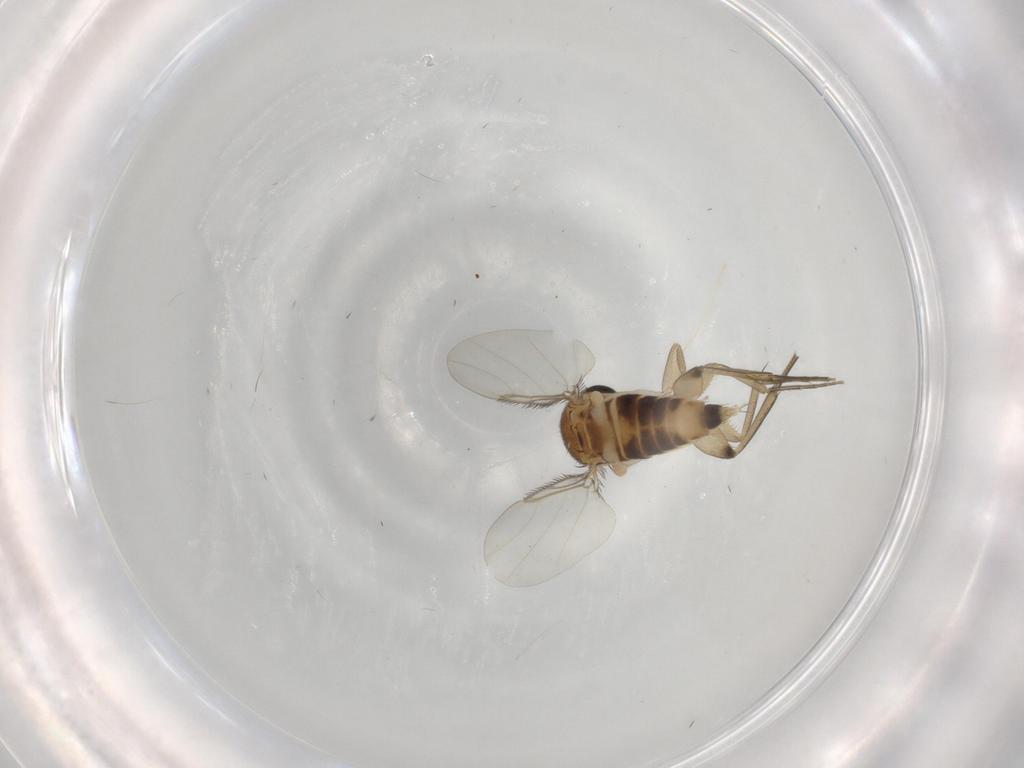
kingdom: Animalia
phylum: Arthropoda
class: Insecta
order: Diptera
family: Phoridae
